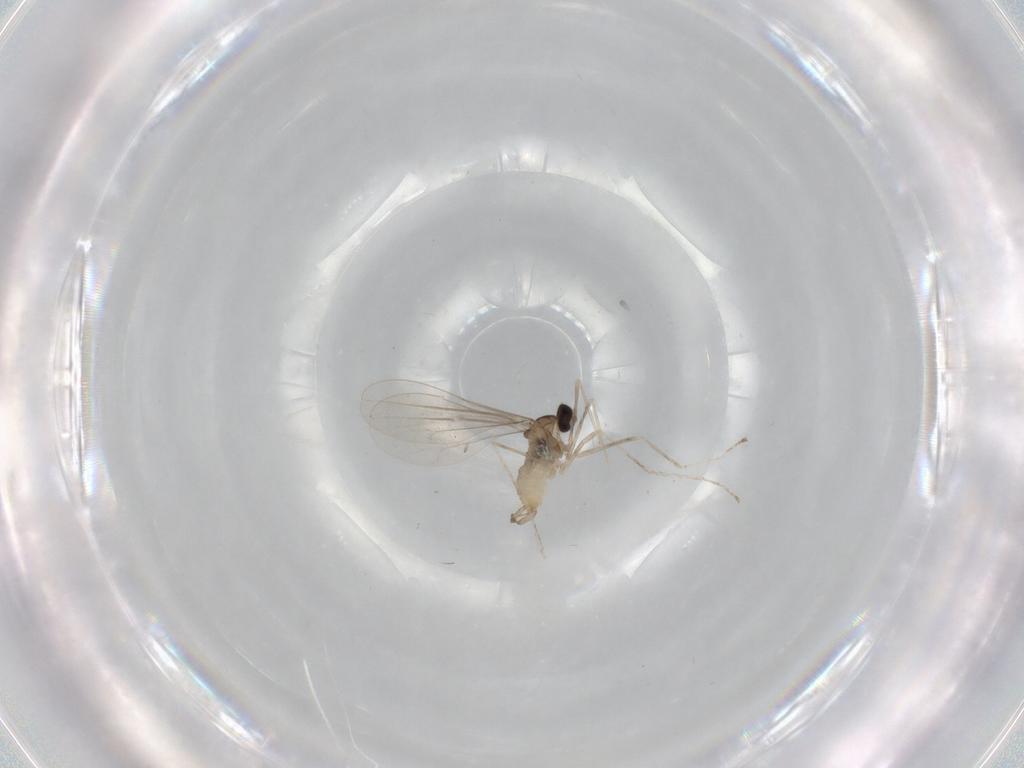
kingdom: Animalia
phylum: Arthropoda
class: Insecta
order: Diptera
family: Cecidomyiidae
